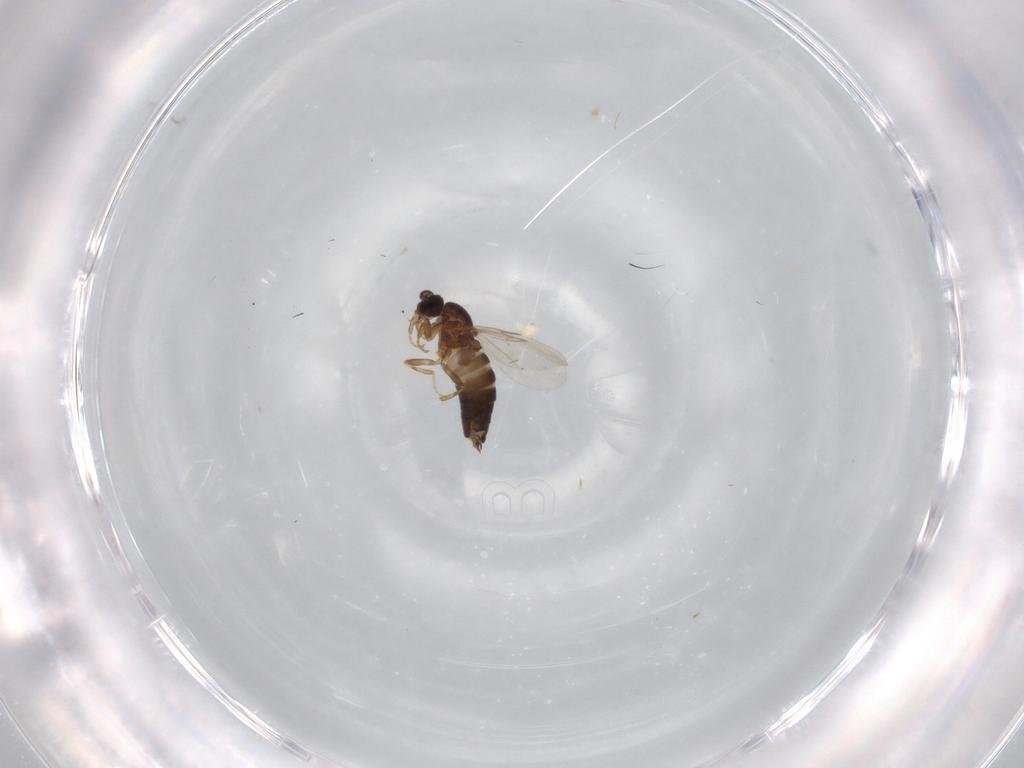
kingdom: Animalia
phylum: Arthropoda
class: Insecta
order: Diptera
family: Scatopsidae
